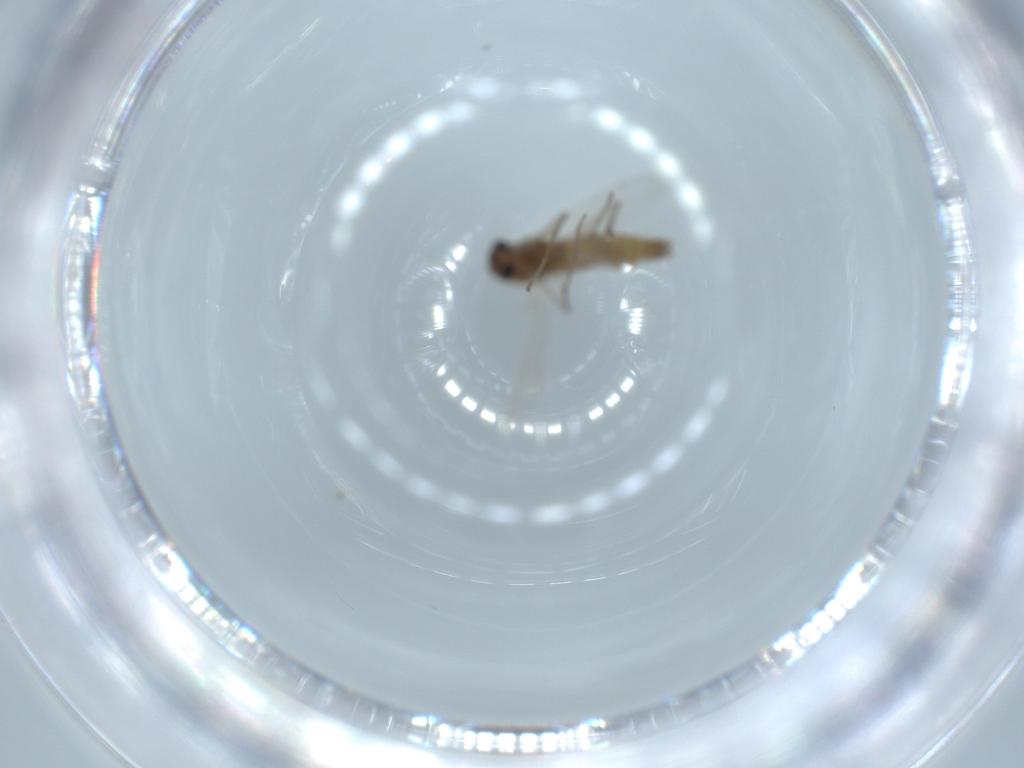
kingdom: Animalia
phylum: Arthropoda
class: Insecta
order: Diptera
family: Chironomidae
